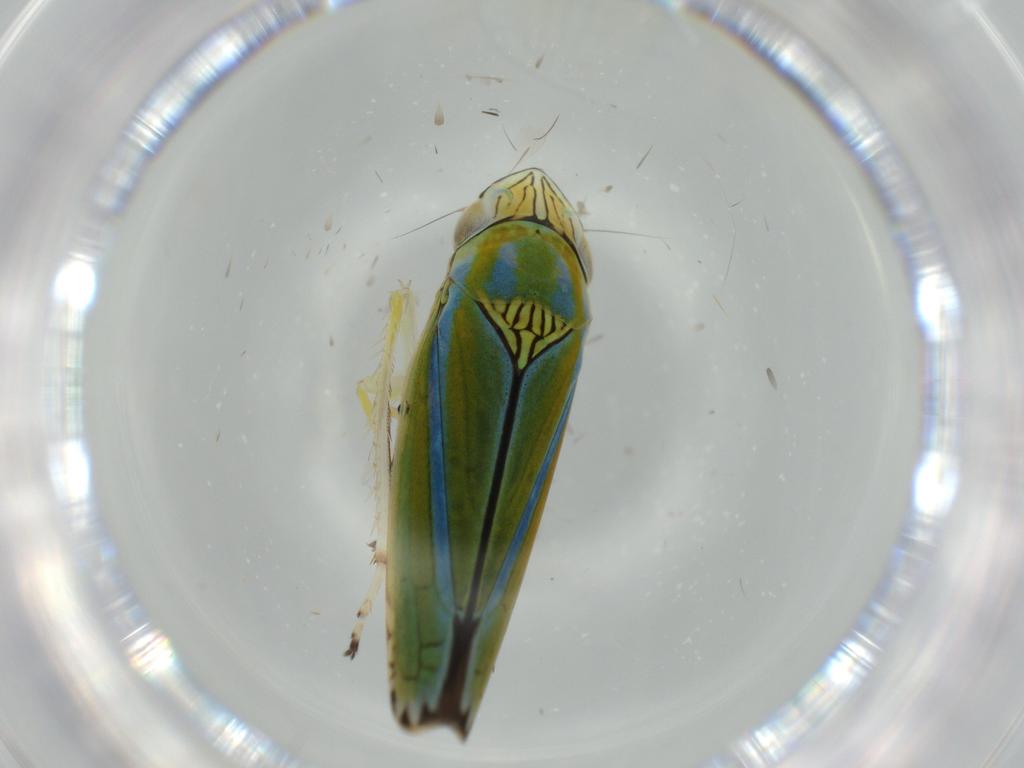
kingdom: Animalia
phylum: Arthropoda
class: Insecta
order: Hemiptera
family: Cicadellidae
